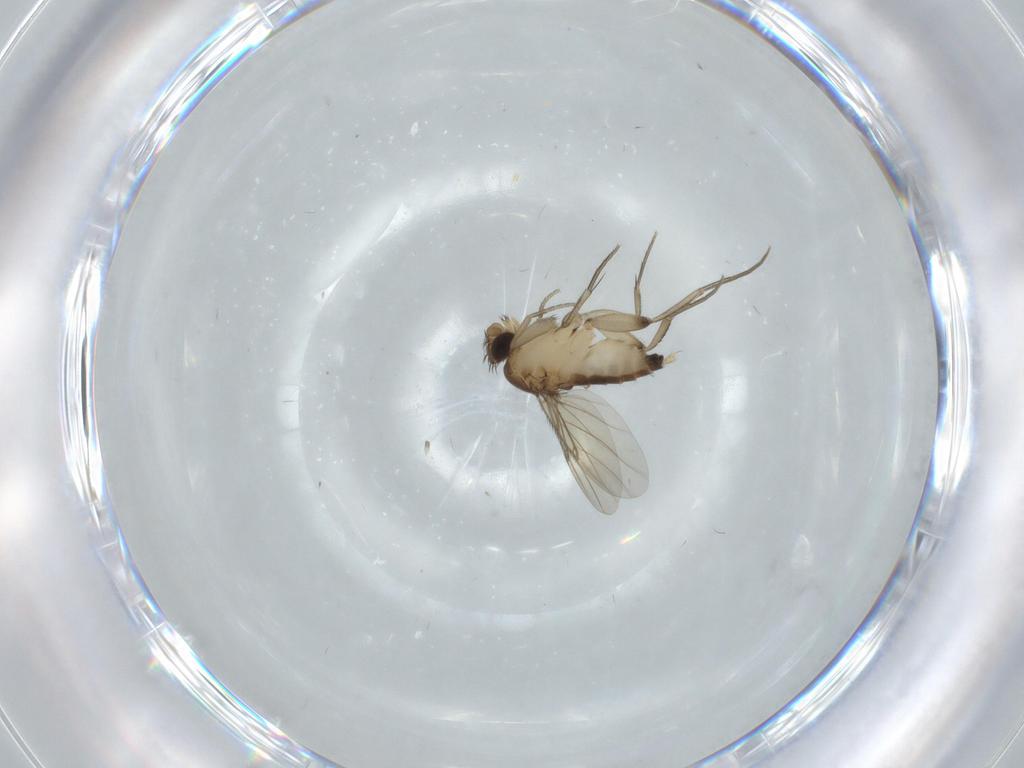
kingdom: Animalia
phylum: Arthropoda
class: Insecta
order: Diptera
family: Phoridae
